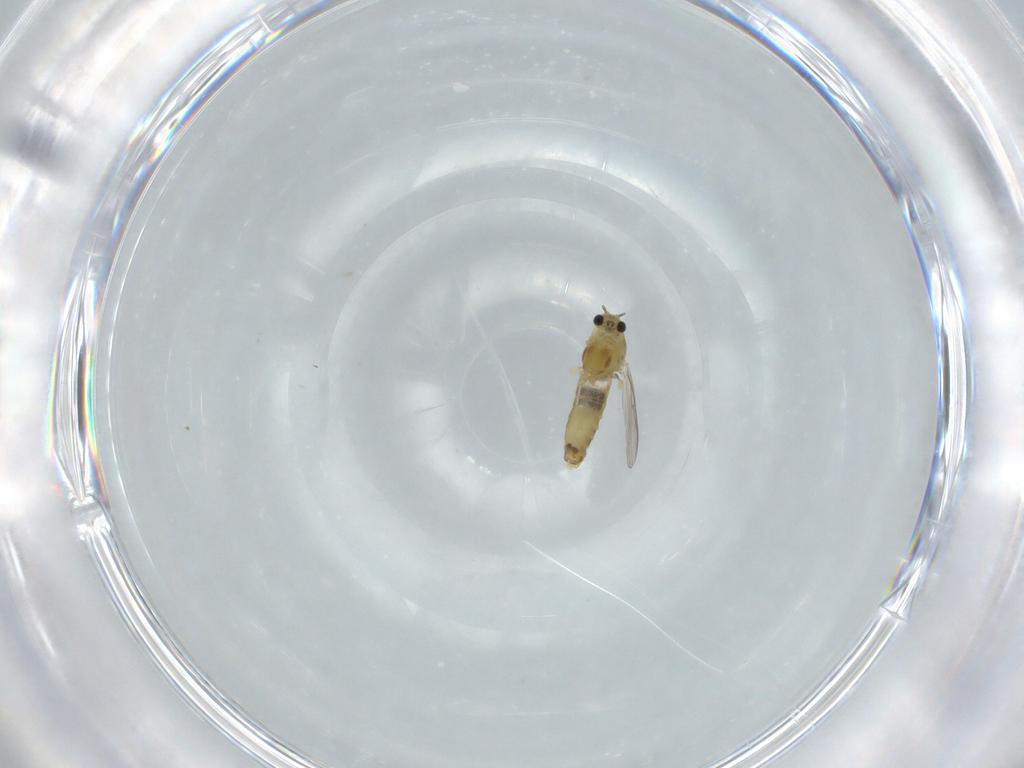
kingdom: Animalia
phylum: Arthropoda
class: Insecta
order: Diptera
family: Chironomidae
